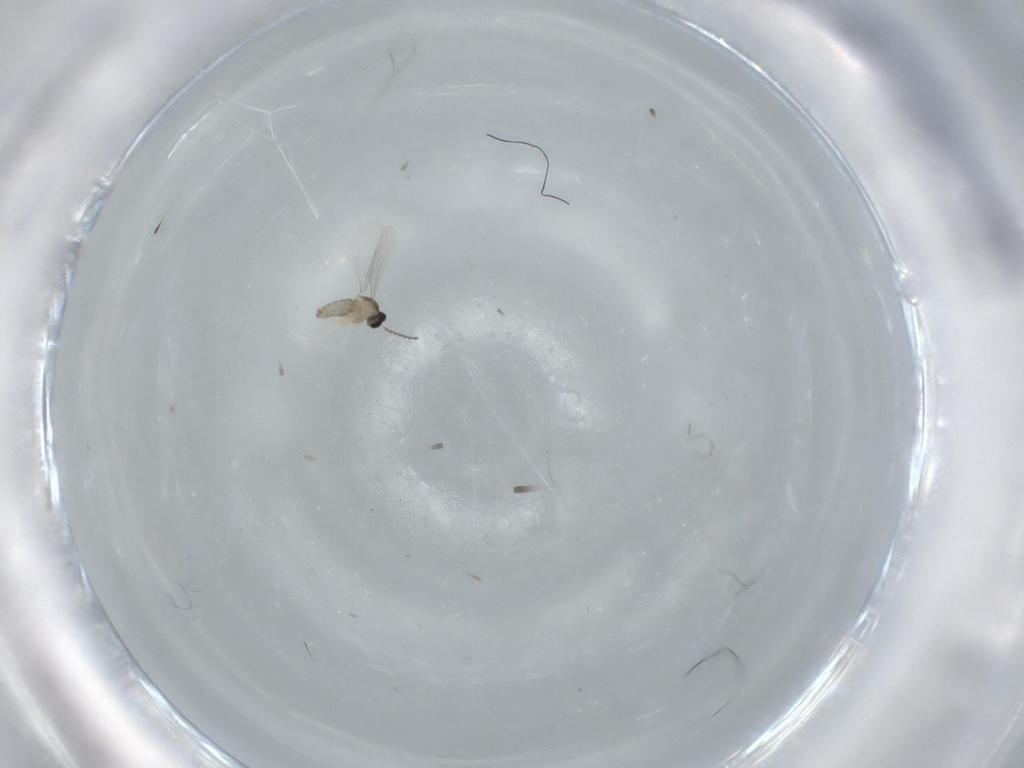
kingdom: Animalia
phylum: Arthropoda
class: Insecta
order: Diptera
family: Cecidomyiidae
